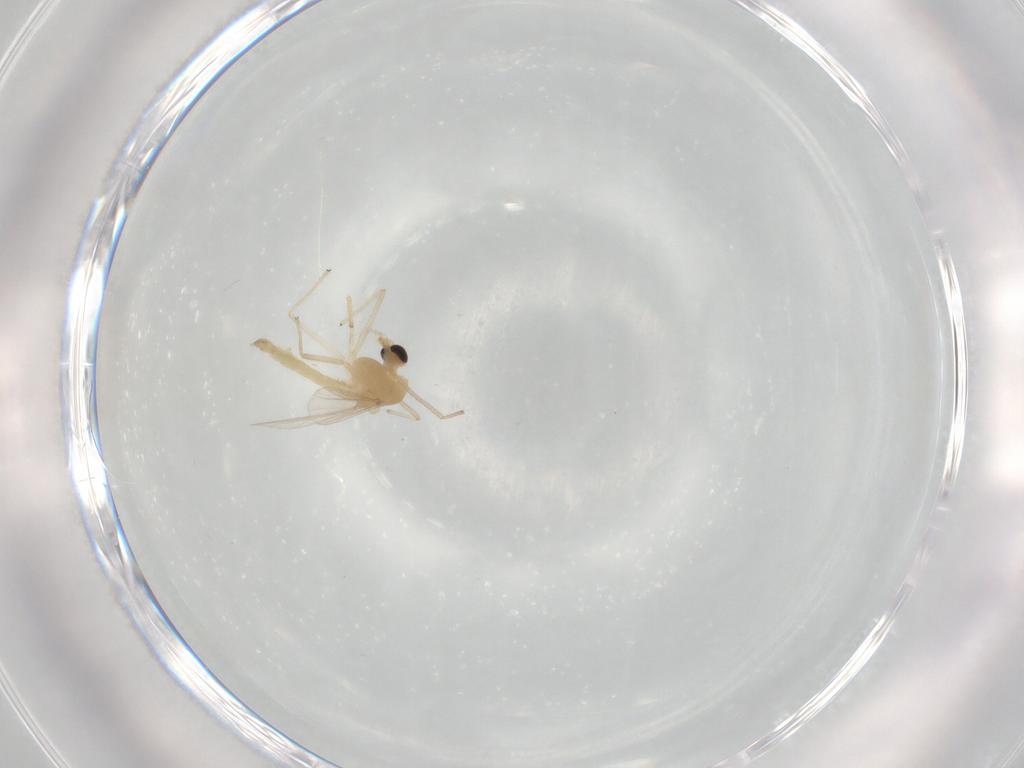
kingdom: Animalia
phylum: Arthropoda
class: Insecta
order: Diptera
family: Chironomidae
